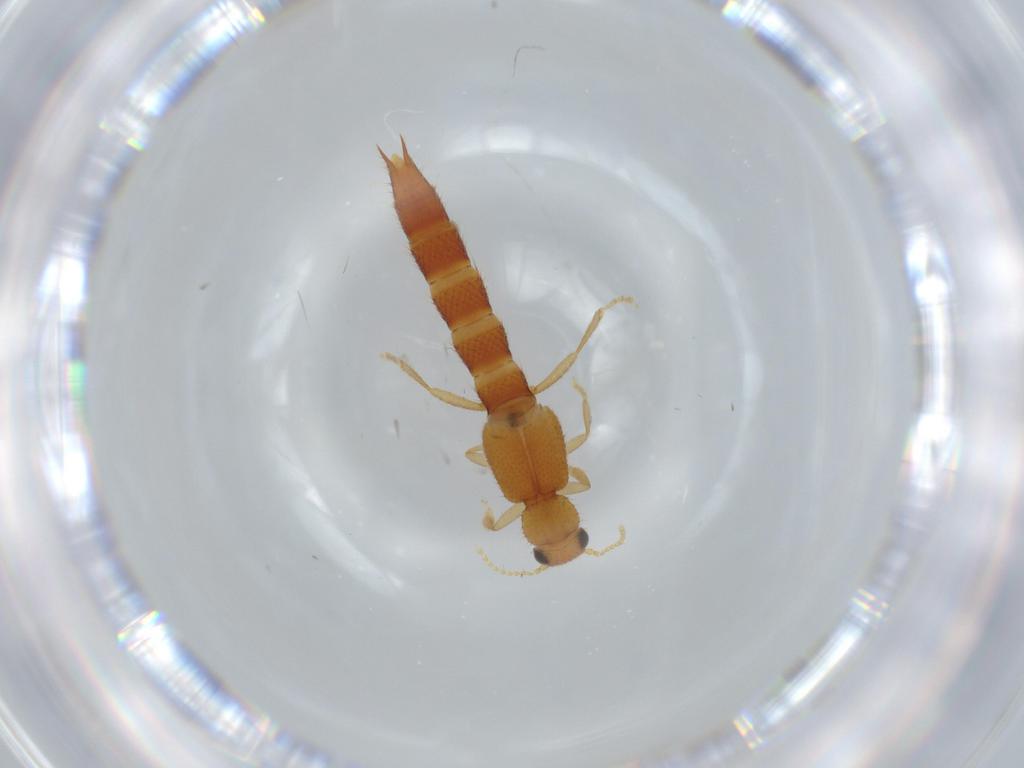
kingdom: Animalia
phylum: Arthropoda
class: Insecta
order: Coleoptera
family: Staphylinidae
